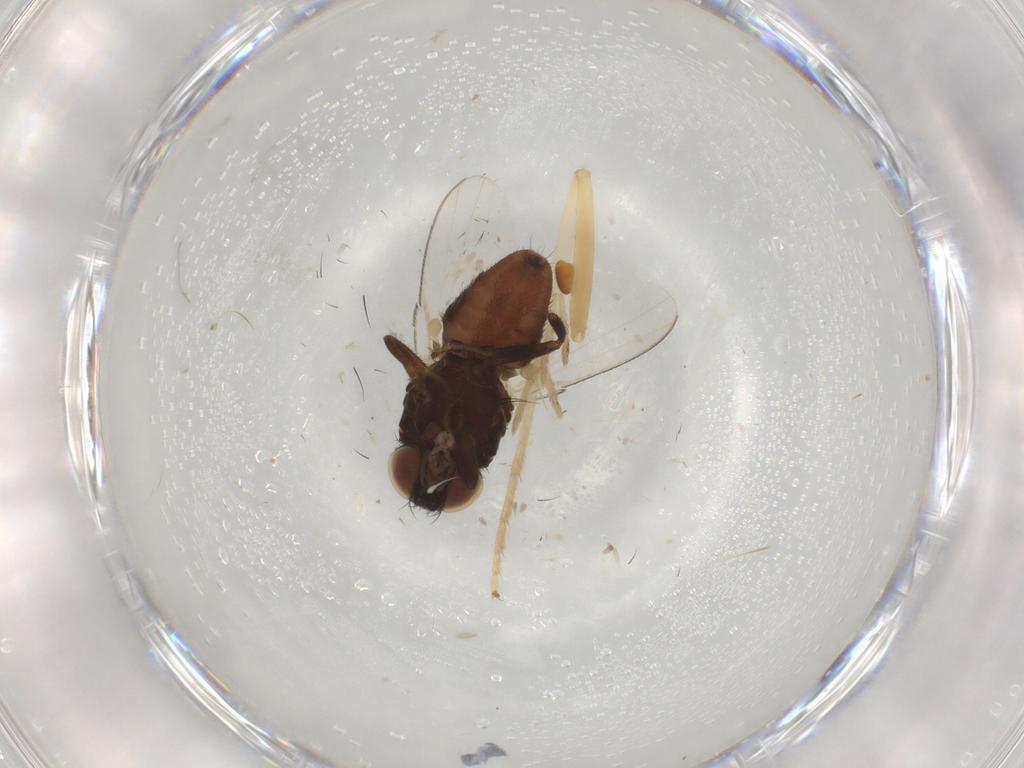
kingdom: Animalia
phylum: Arthropoda
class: Insecta
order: Diptera
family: Milichiidae
